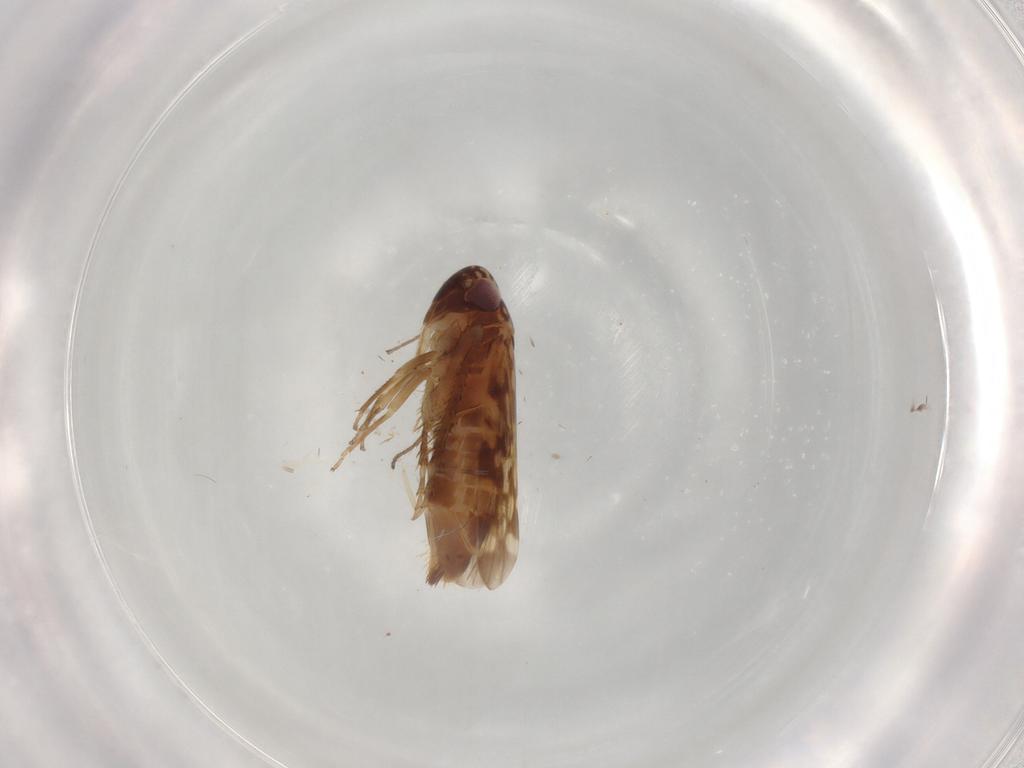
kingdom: Animalia
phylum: Arthropoda
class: Insecta
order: Hemiptera
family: Cicadellidae
